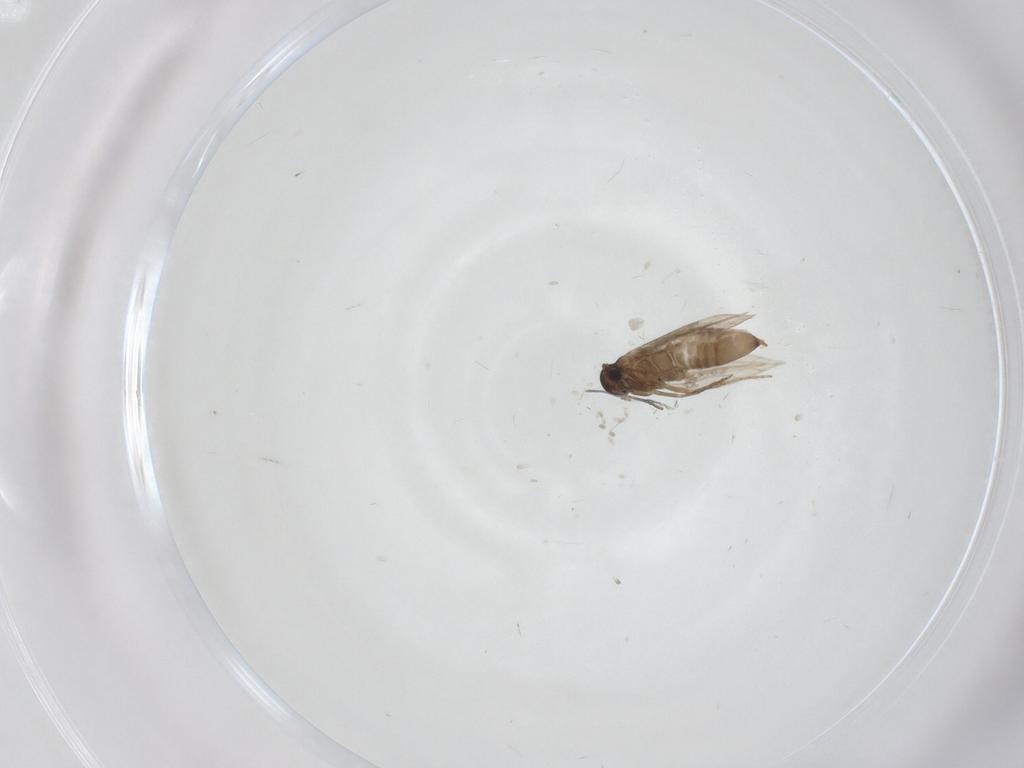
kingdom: Animalia
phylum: Arthropoda
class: Insecta
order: Lepidoptera
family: Heliozelidae
